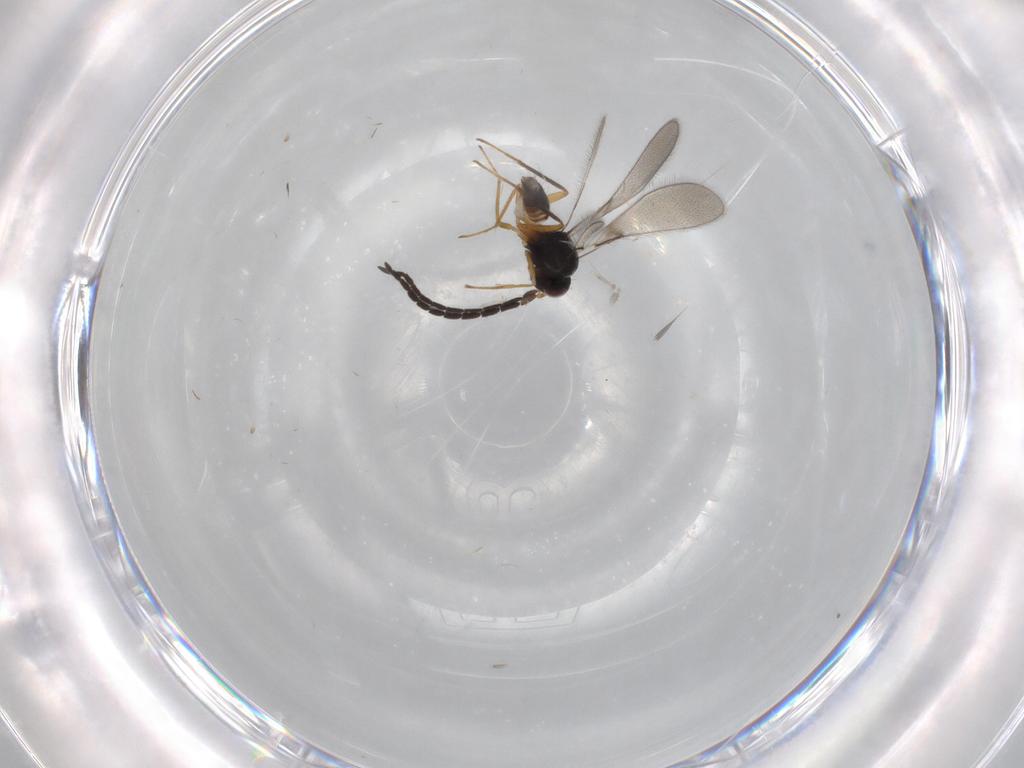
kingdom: Animalia
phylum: Arthropoda
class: Insecta
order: Hymenoptera
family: Mymaridae
